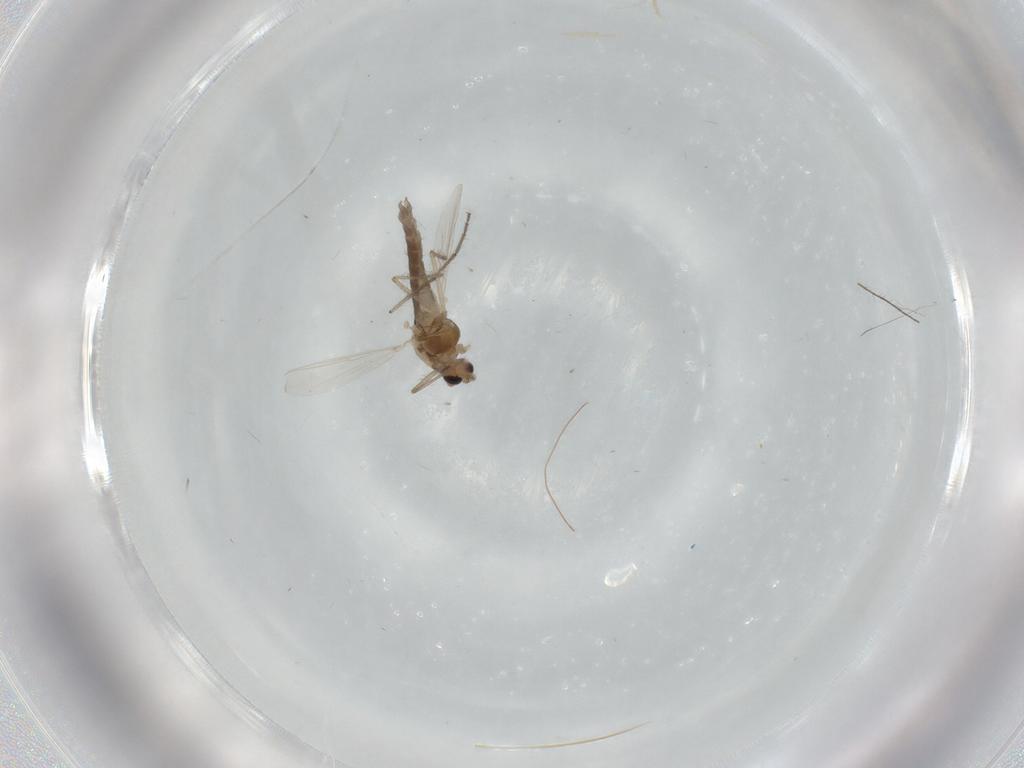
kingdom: Animalia
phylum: Arthropoda
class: Insecta
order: Diptera
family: Chironomidae
